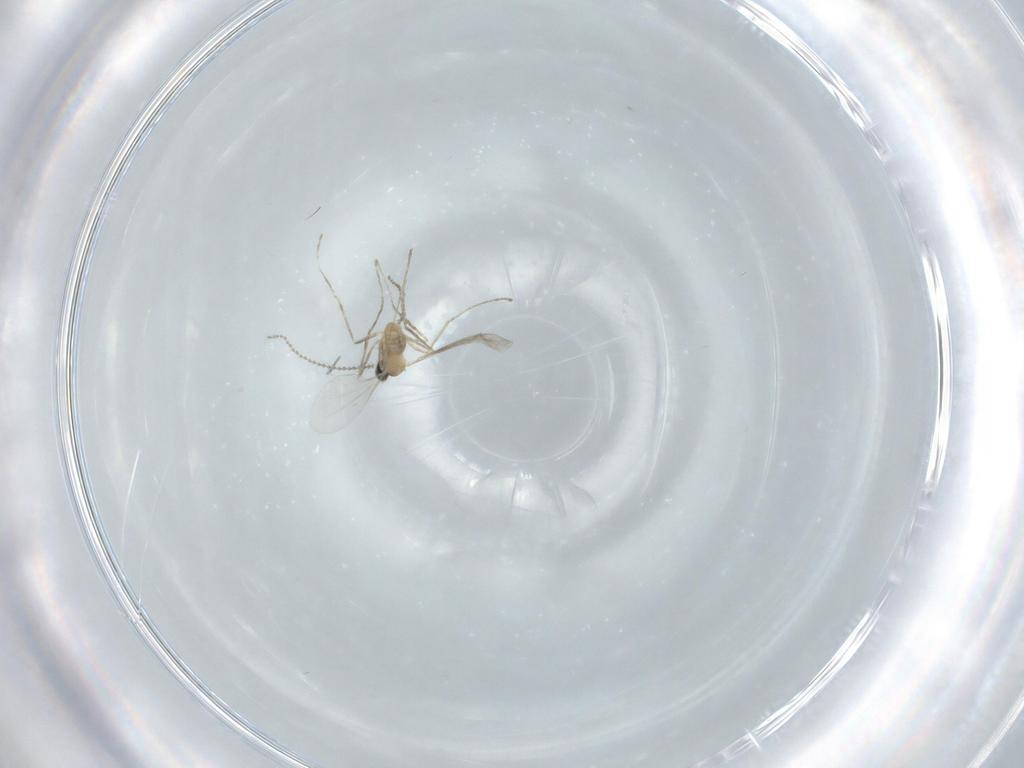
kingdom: Animalia
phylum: Arthropoda
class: Insecta
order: Diptera
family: Cecidomyiidae
